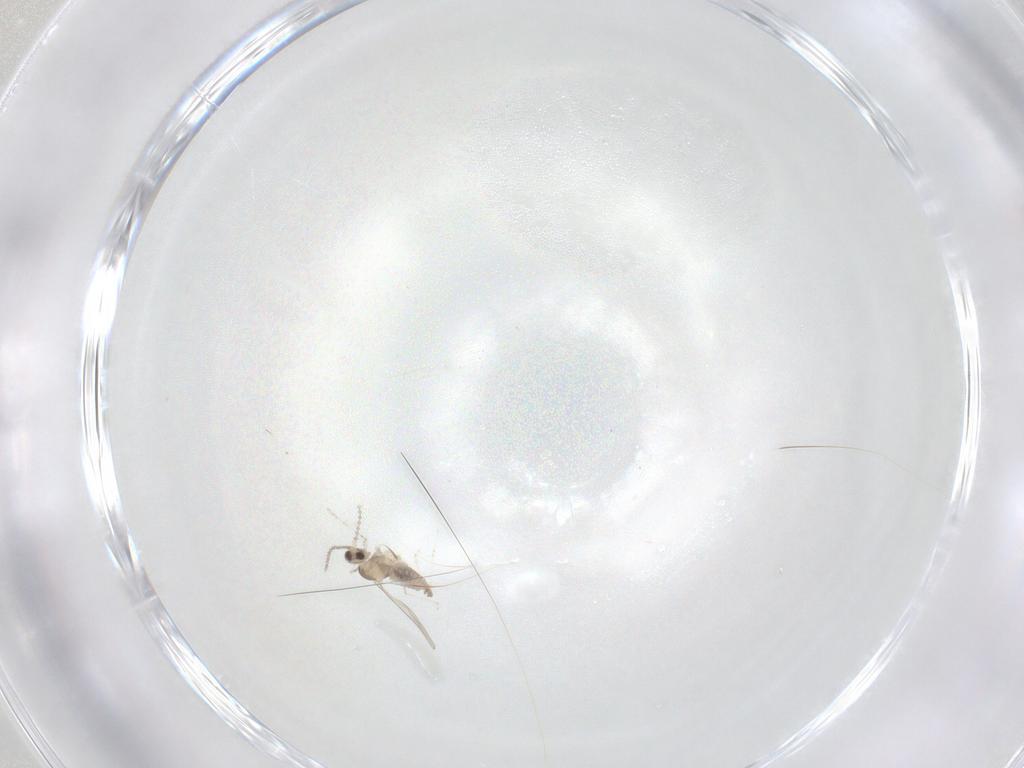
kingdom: Animalia
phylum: Arthropoda
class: Insecta
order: Diptera
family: Cecidomyiidae
